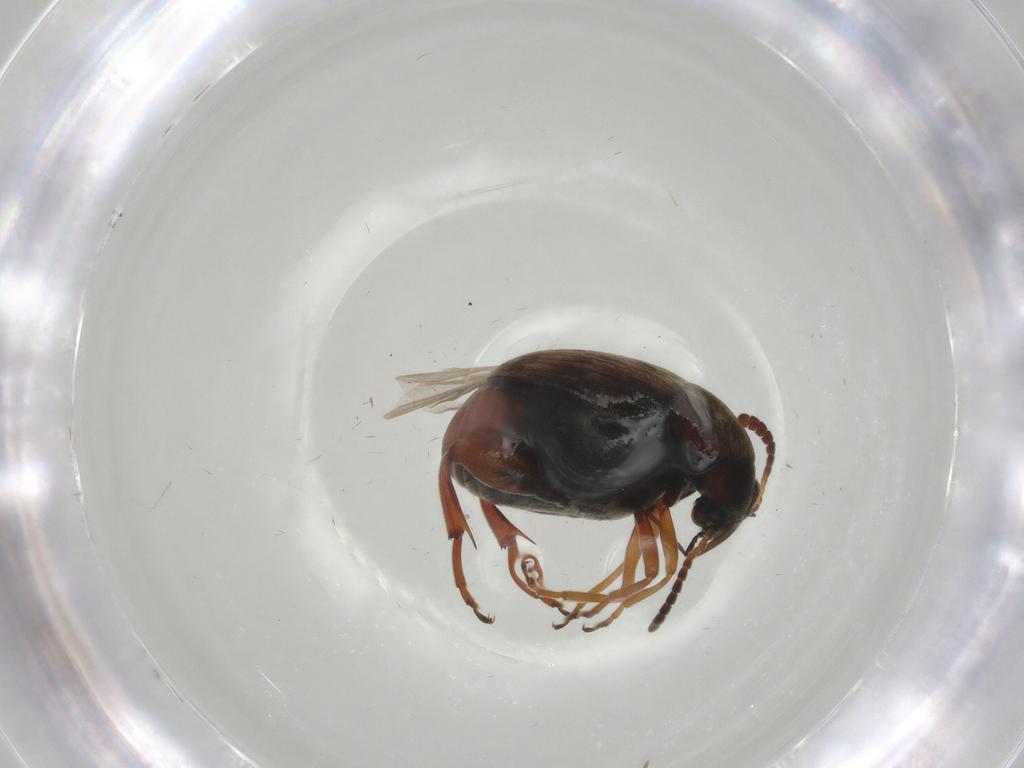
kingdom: Animalia
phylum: Arthropoda
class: Insecta
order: Coleoptera
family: Chrysomelidae
